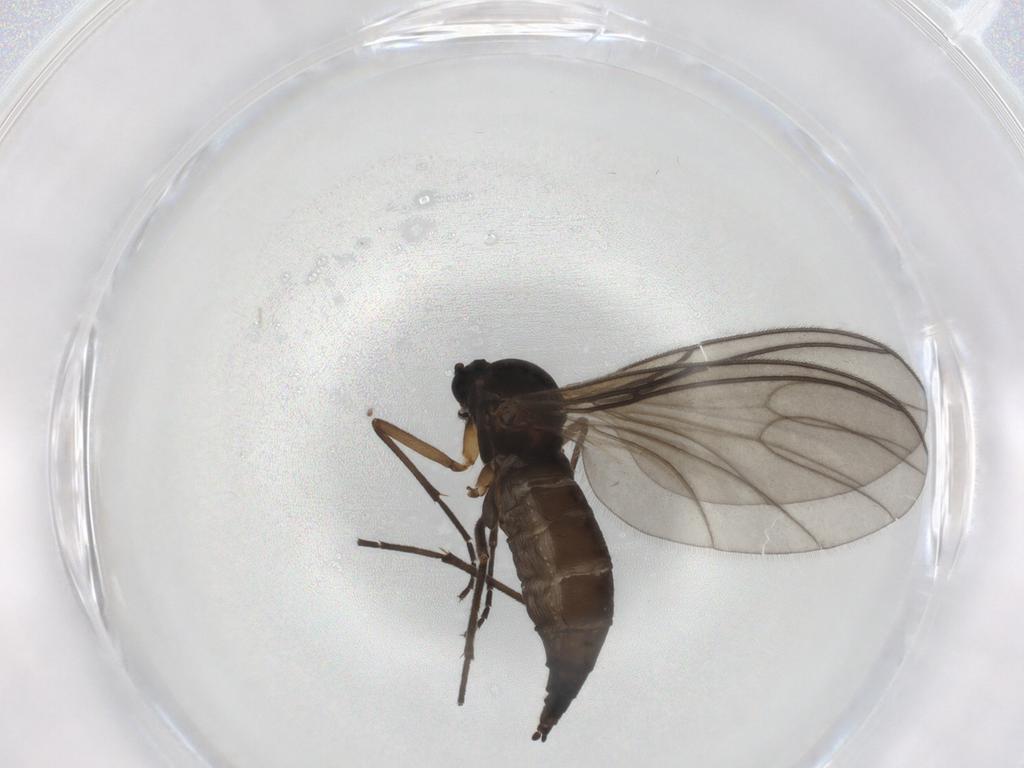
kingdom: Animalia
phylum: Arthropoda
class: Insecta
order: Diptera
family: Sciaridae
